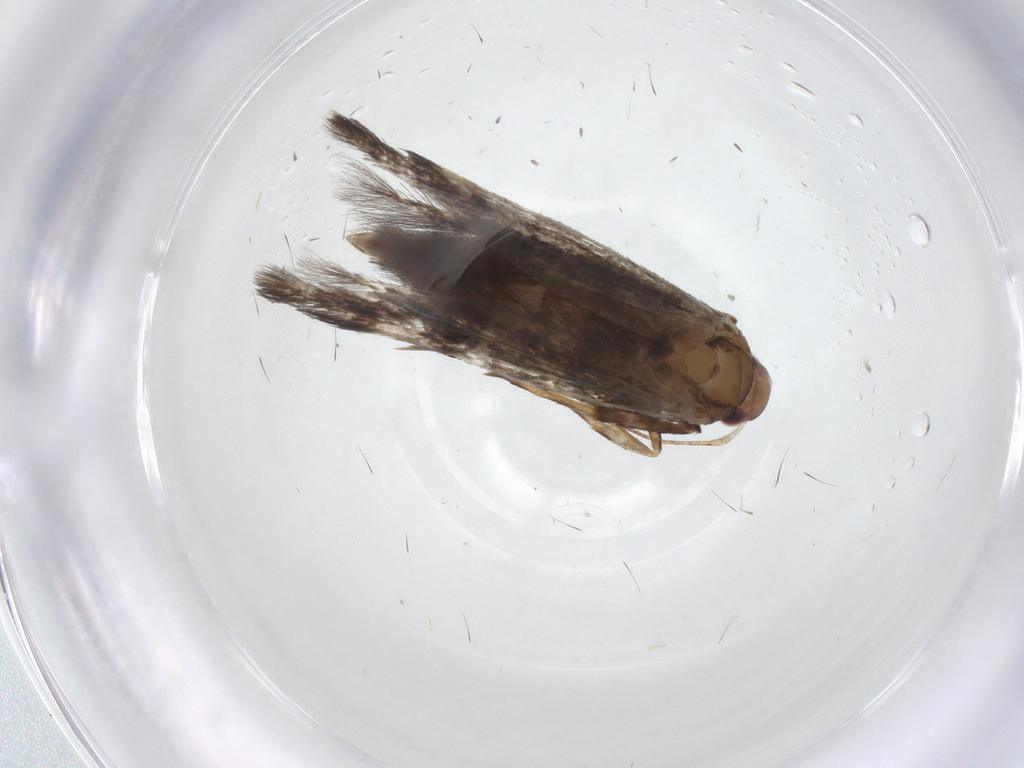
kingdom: Animalia
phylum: Arthropoda
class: Insecta
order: Lepidoptera
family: Gelechiidae
